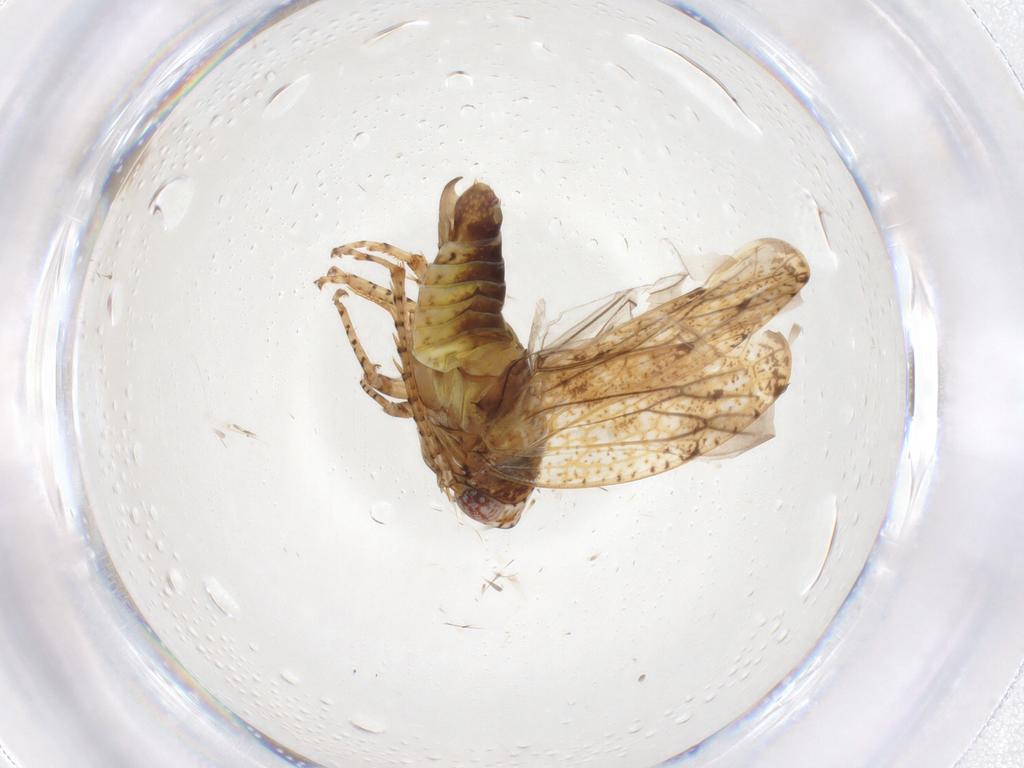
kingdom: Animalia
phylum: Arthropoda
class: Insecta
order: Hemiptera
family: Cicadellidae
